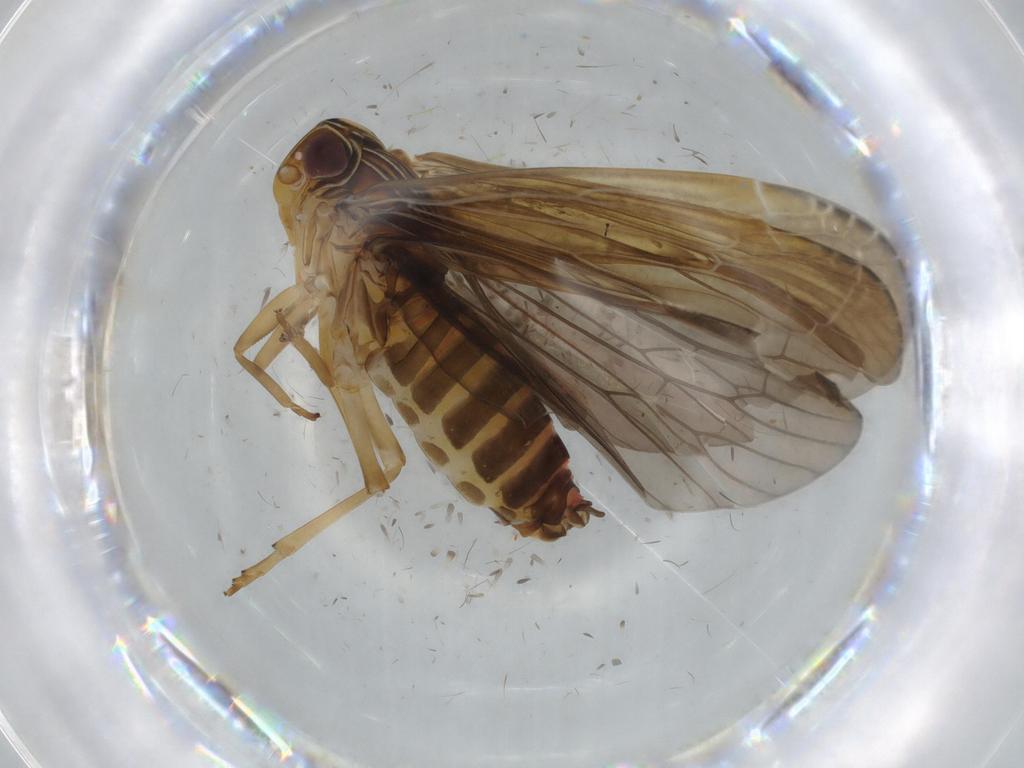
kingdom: Animalia
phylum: Arthropoda
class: Insecta
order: Hemiptera
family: Achilidae
